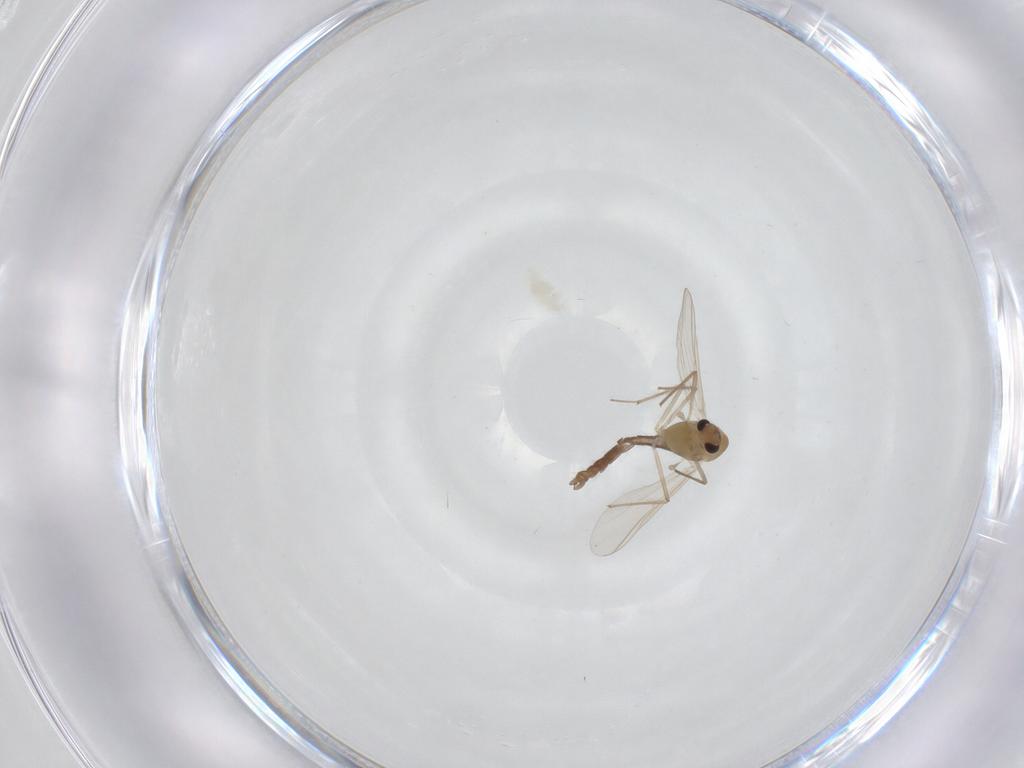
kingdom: Animalia
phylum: Arthropoda
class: Insecta
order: Diptera
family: Chironomidae
